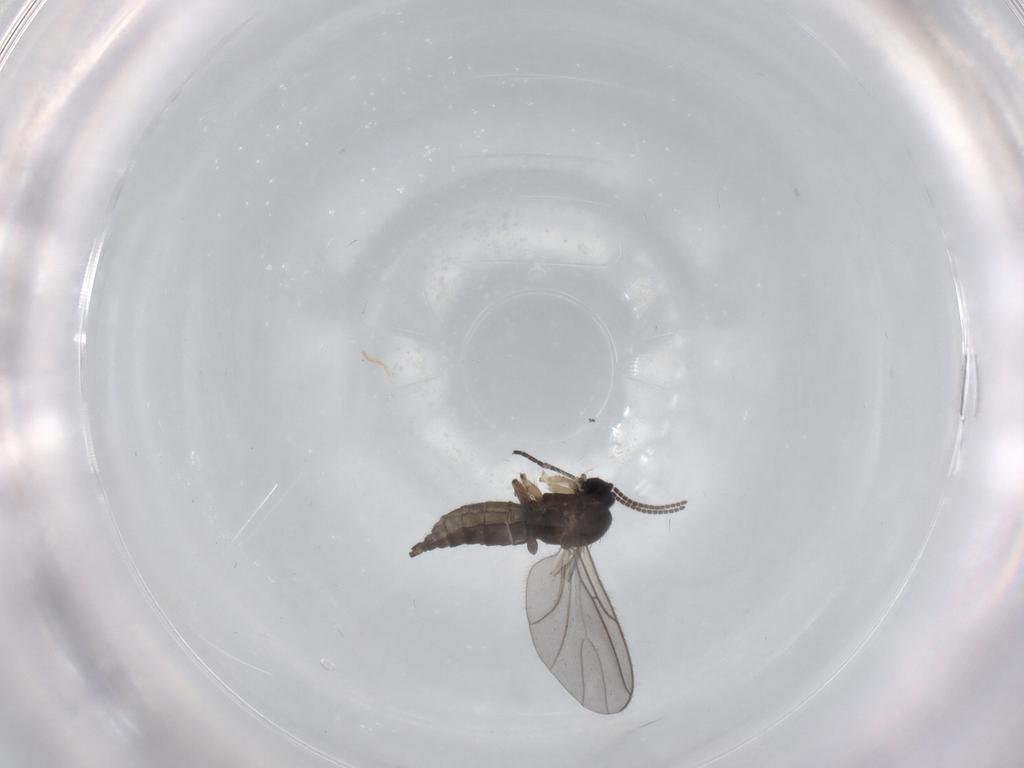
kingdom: Animalia
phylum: Arthropoda
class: Insecta
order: Diptera
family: Sciaridae
